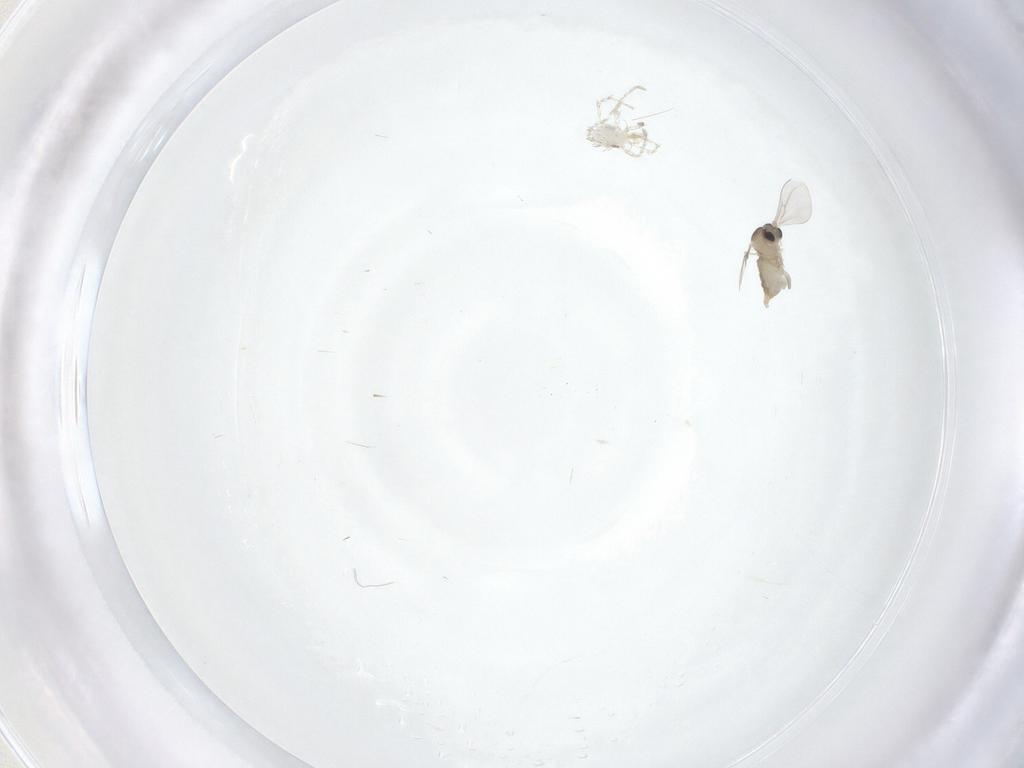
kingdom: Animalia
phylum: Arthropoda
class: Insecta
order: Diptera
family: Cecidomyiidae
